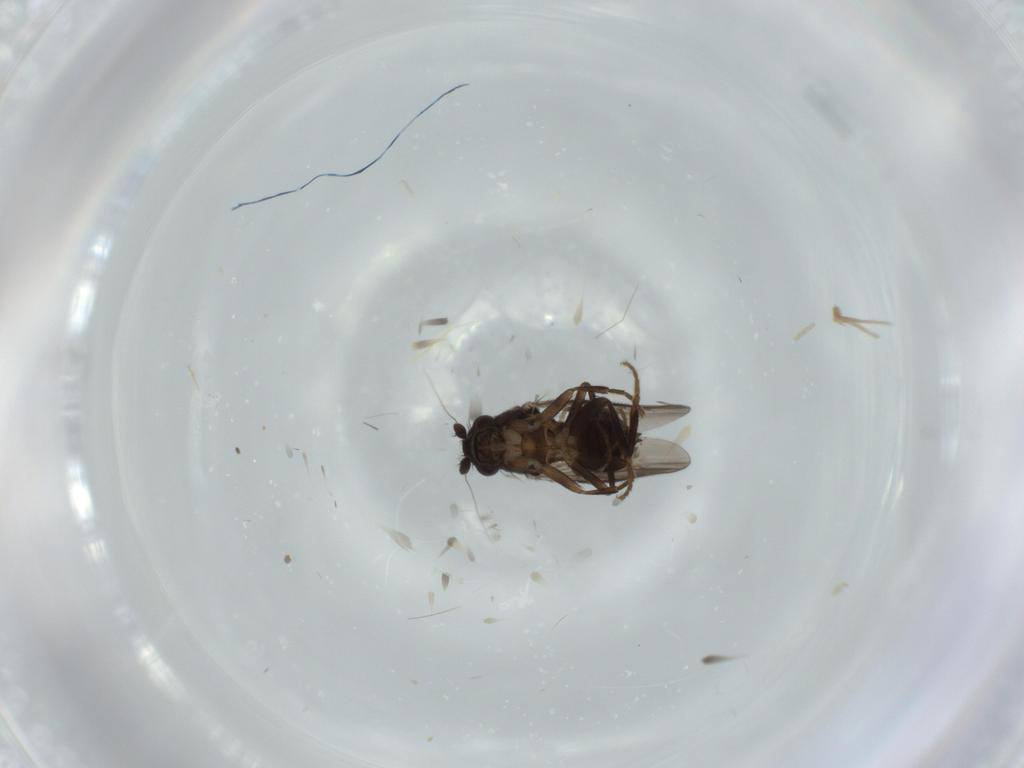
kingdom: Animalia
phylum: Arthropoda
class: Insecta
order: Diptera
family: Sphaeroceridae
